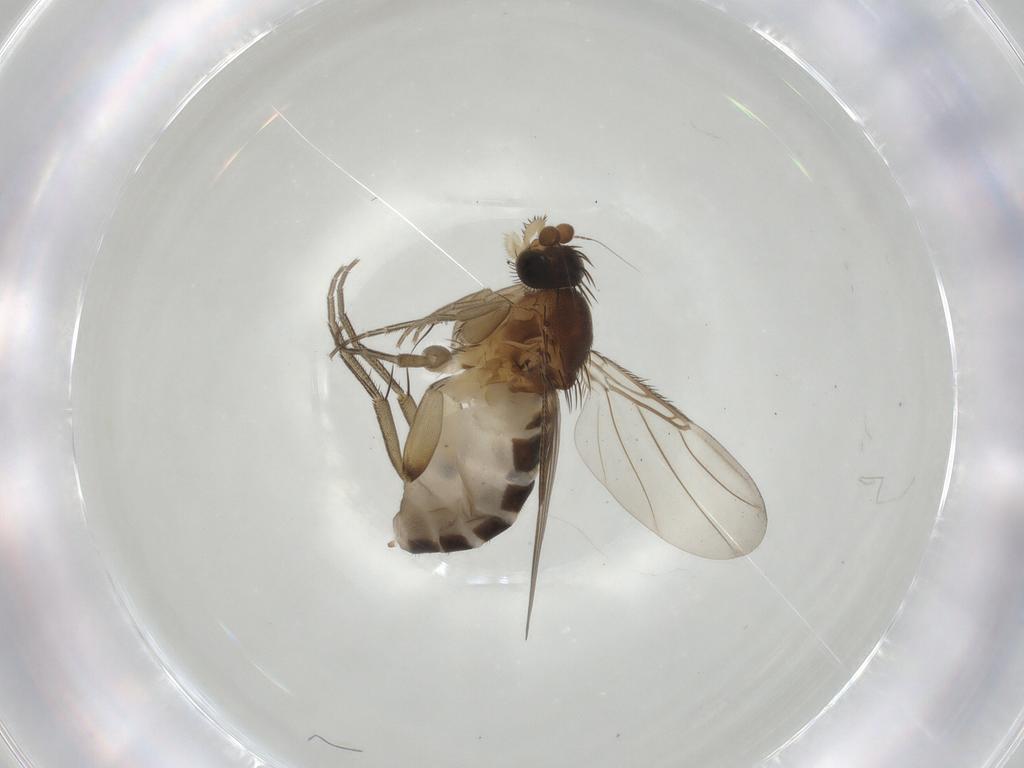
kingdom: Animalia
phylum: Arthropoda
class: Insecta
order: Diptera
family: Phoridae
